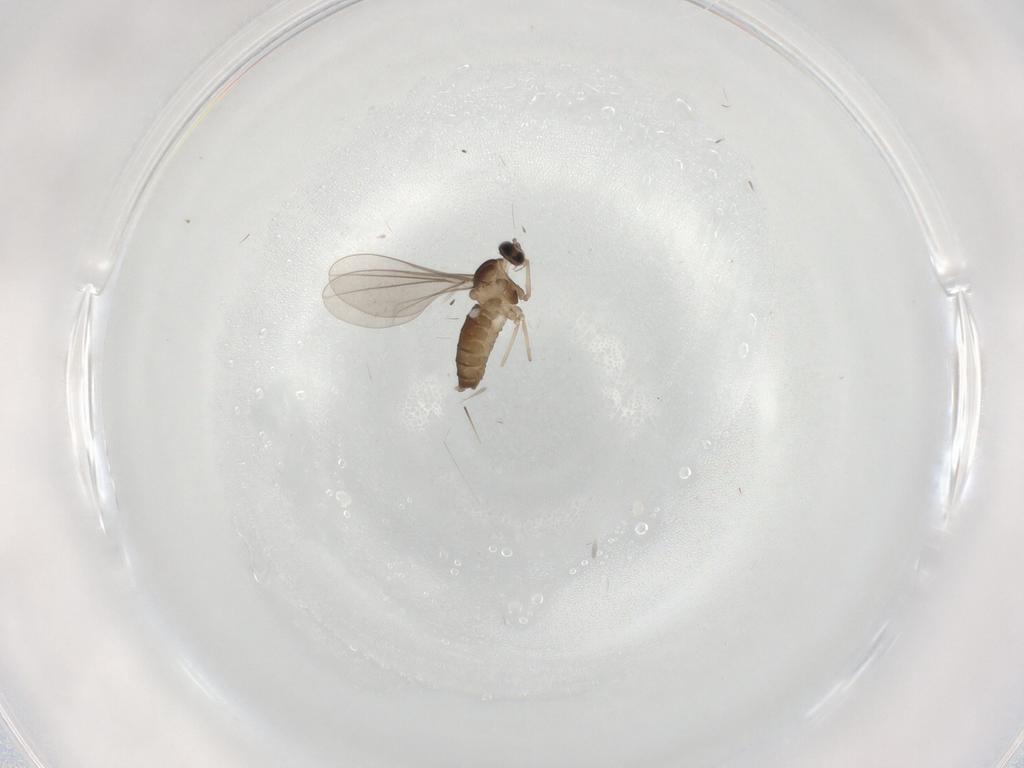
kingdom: Animalia
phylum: Arthropoda
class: Insecta
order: Diptera
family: Cecidomyiidae
